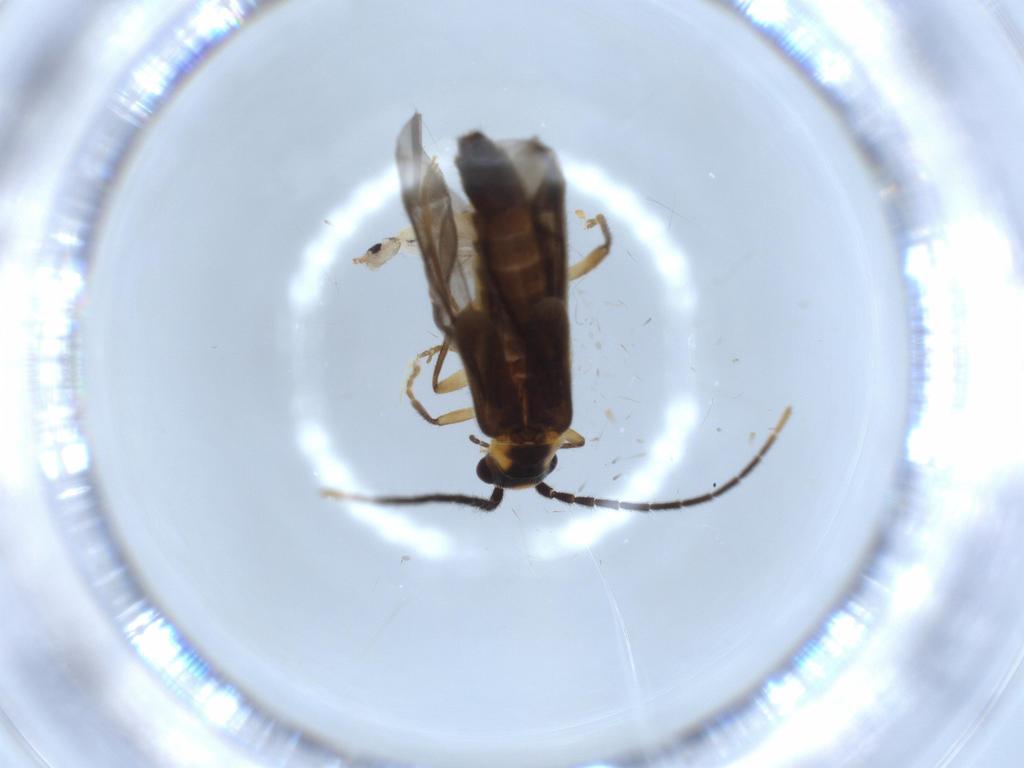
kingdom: Animalia
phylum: Arthropoda
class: Insecta
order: Coleoptera
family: Cantharidae
